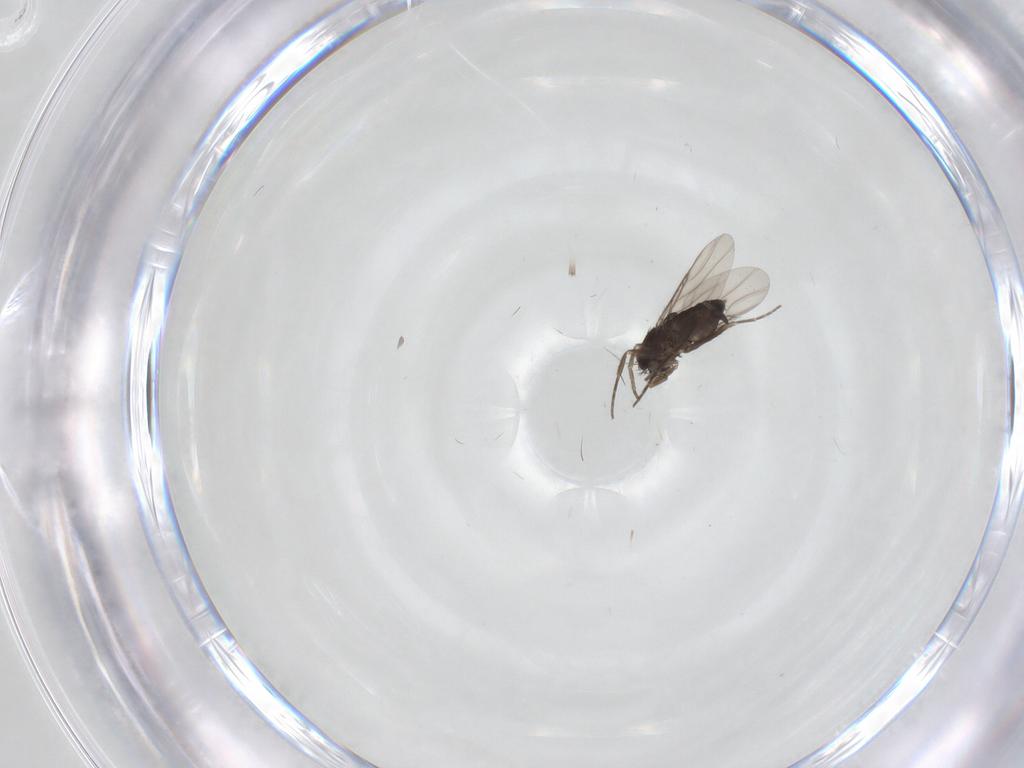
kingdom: Animalia
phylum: Arthropoda
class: Insecta
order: Diptera
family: Phoridae
